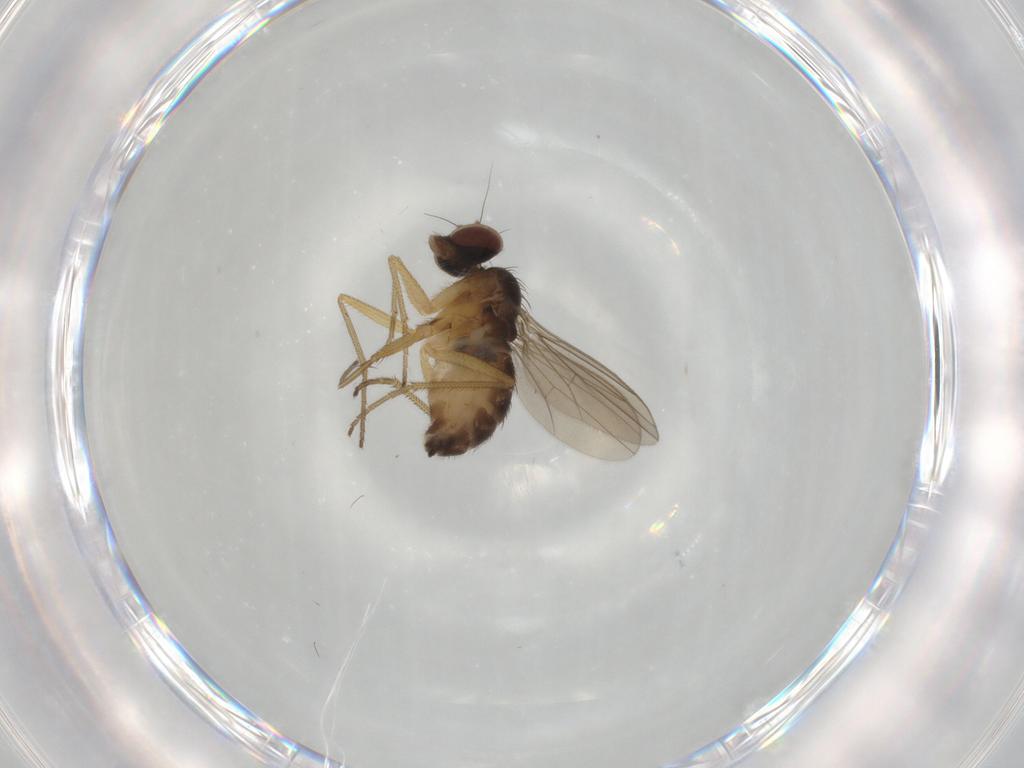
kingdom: Animalia
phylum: Arthropoda
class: Insecta
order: Diptera
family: Dolichopodidae
